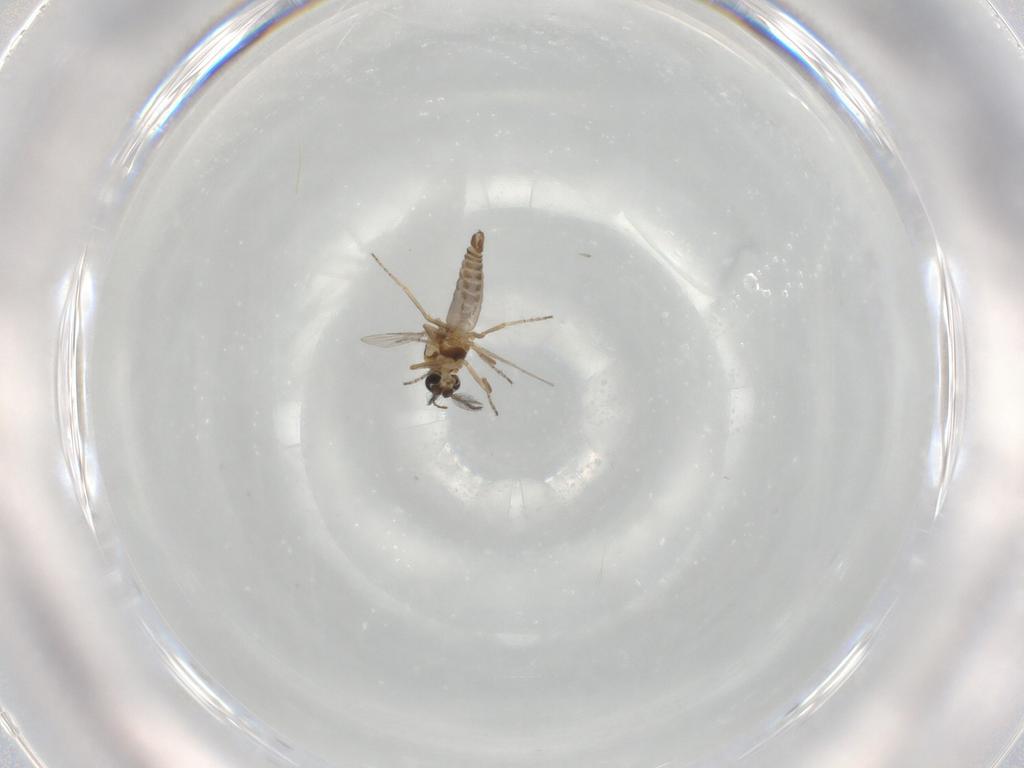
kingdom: Animalia
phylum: Arthropoda
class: Insecta
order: Diptera
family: Ceratopogonidae
